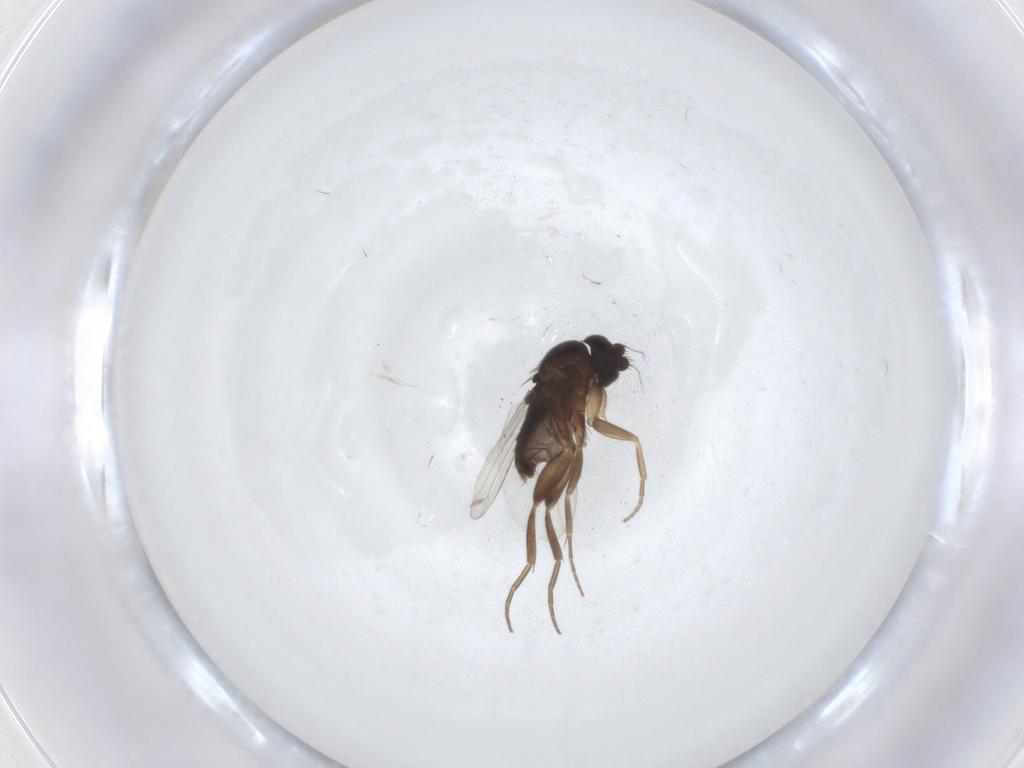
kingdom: Animalia
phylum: Arthropoda
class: Insecta
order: Diptera
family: Phoridae
